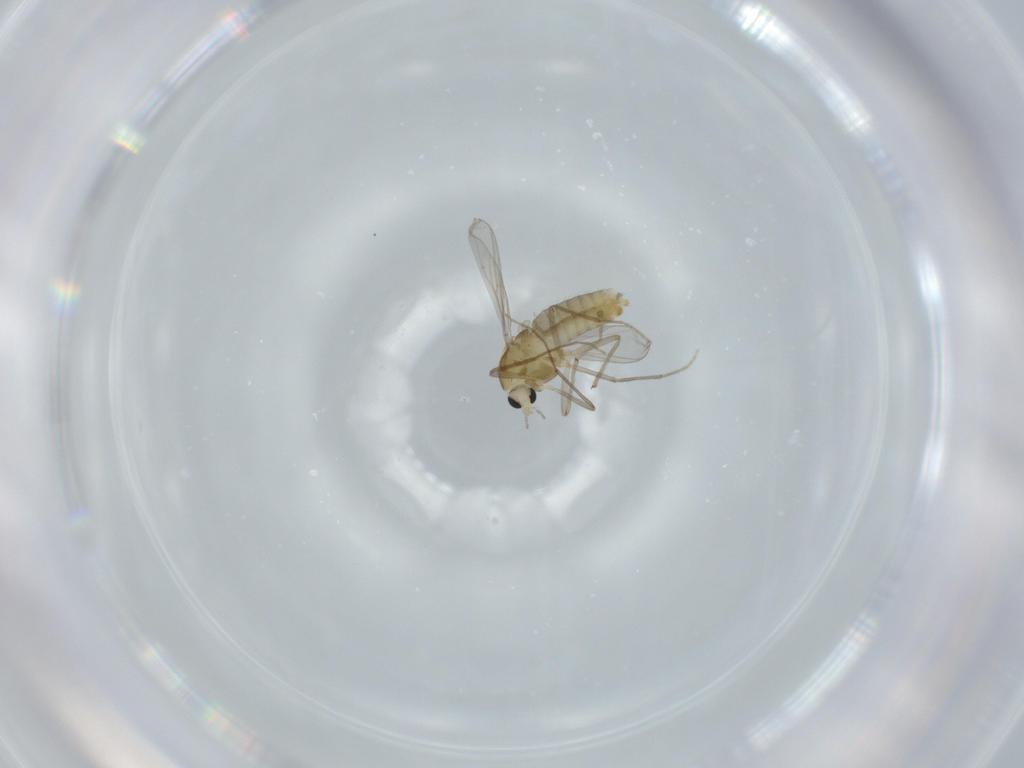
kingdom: Animalia
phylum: Arthropoda
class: Insecta
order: Diptera
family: Chironomidae
